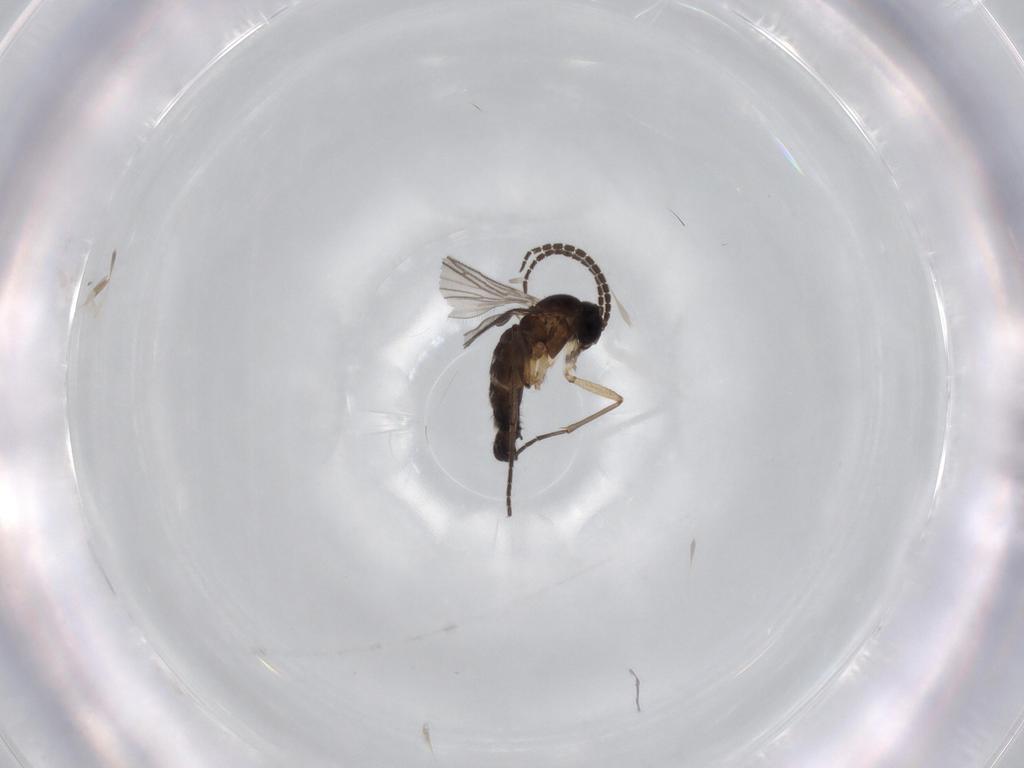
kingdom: Animalia
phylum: Arthropoda
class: Insecta
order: Diptera
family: Sciaridae
